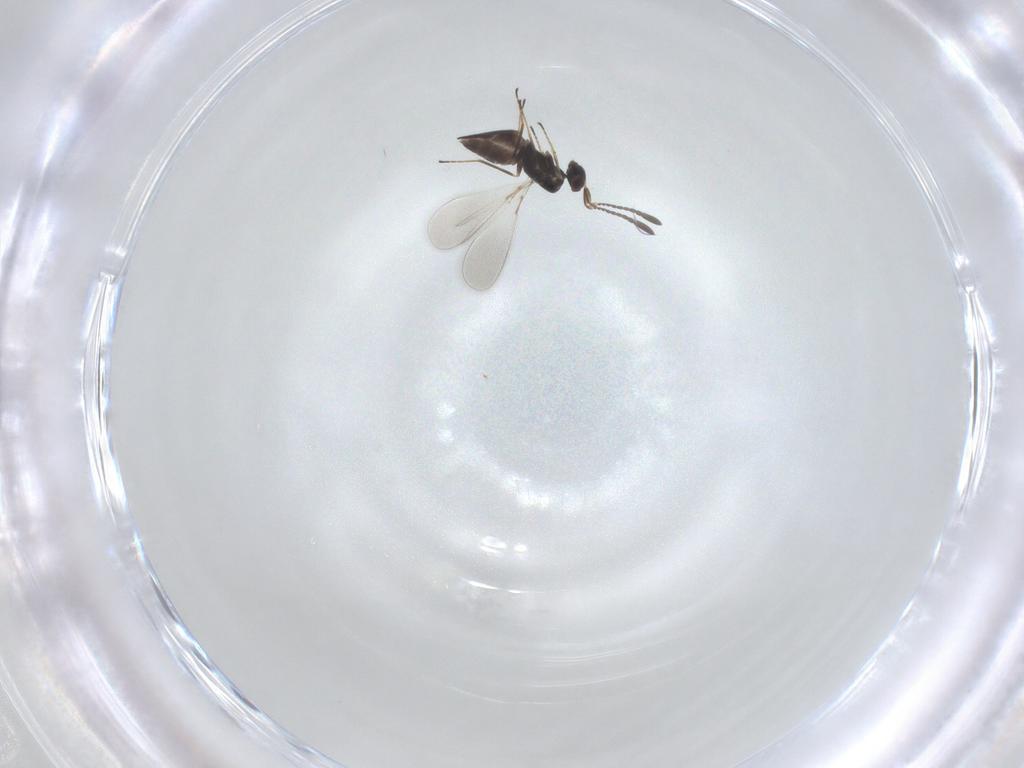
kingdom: Animalia
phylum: Arthropoda
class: Insecta
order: Hymenoptera
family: Mymaridae
